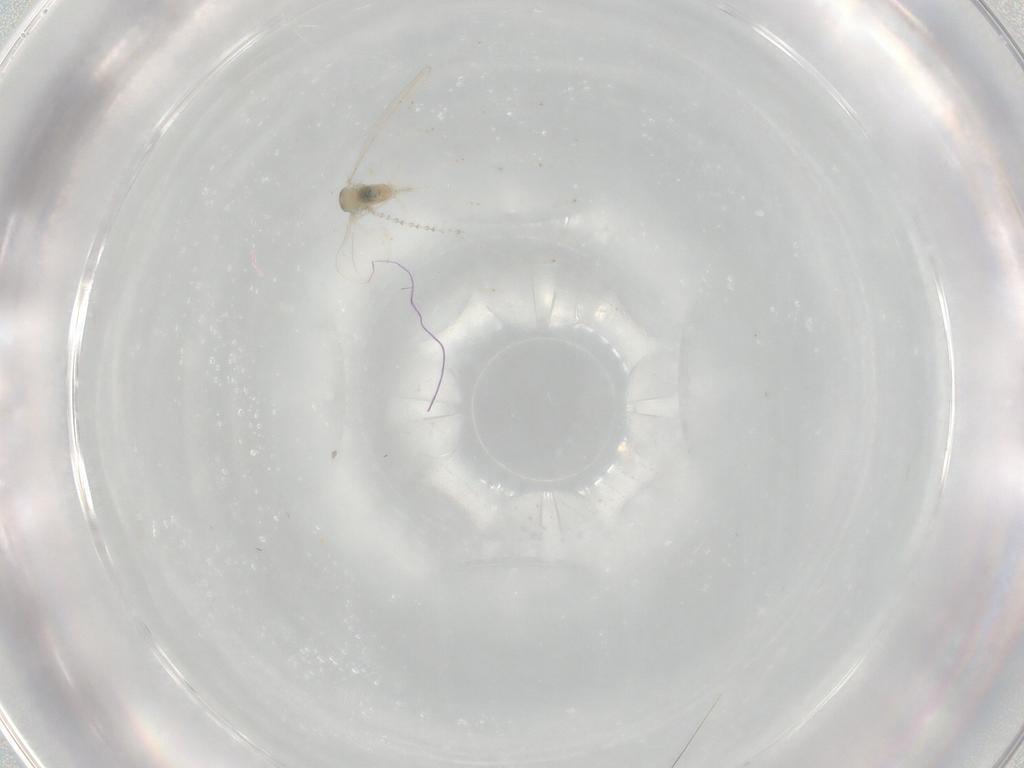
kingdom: Animalia
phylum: Arthropoda
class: Insecta
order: Diptera
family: Cecidomyiidae
